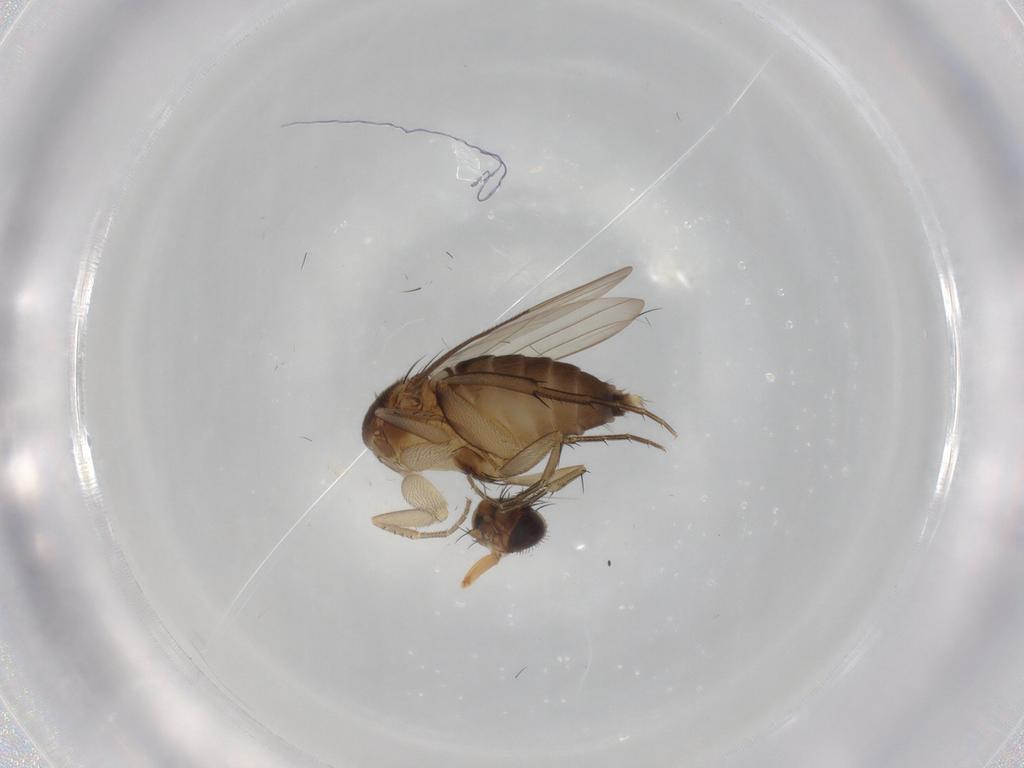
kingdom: Animalia
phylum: Arthropoda
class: Insecta
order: Diptera
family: Phoridae
